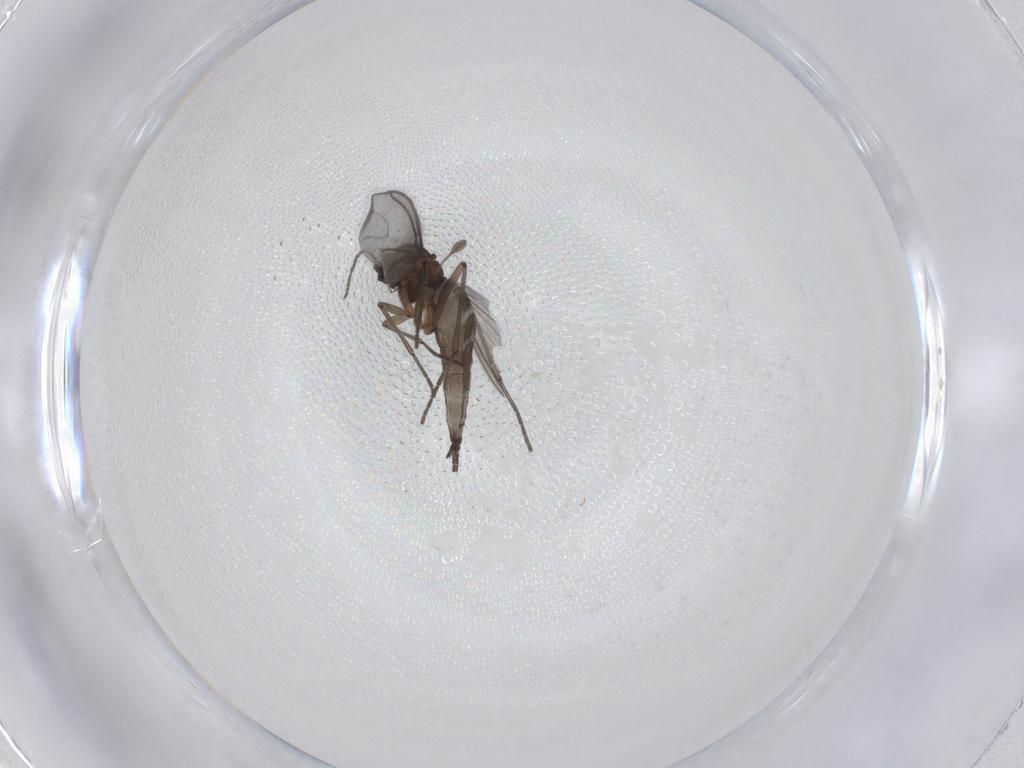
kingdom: Animalia
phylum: Arthropoda
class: Insecta
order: Diptera
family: Sciaridae
